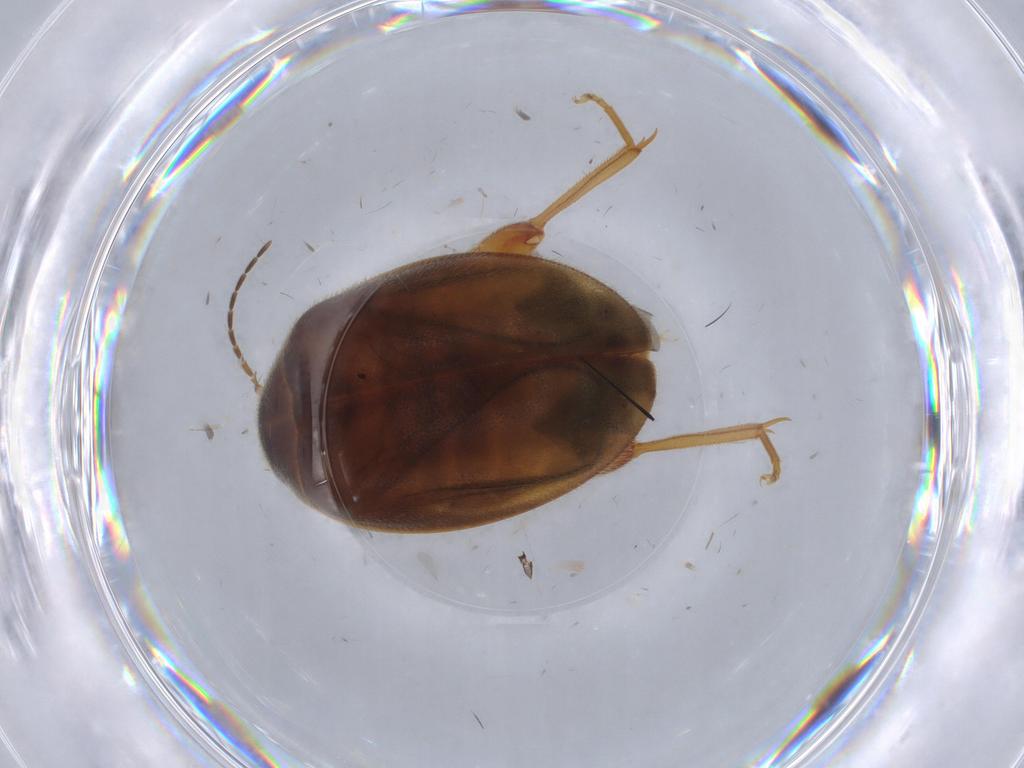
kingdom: Animalia
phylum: Arthropoda
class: Insecta
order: Coleoptera
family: Scirtidae
